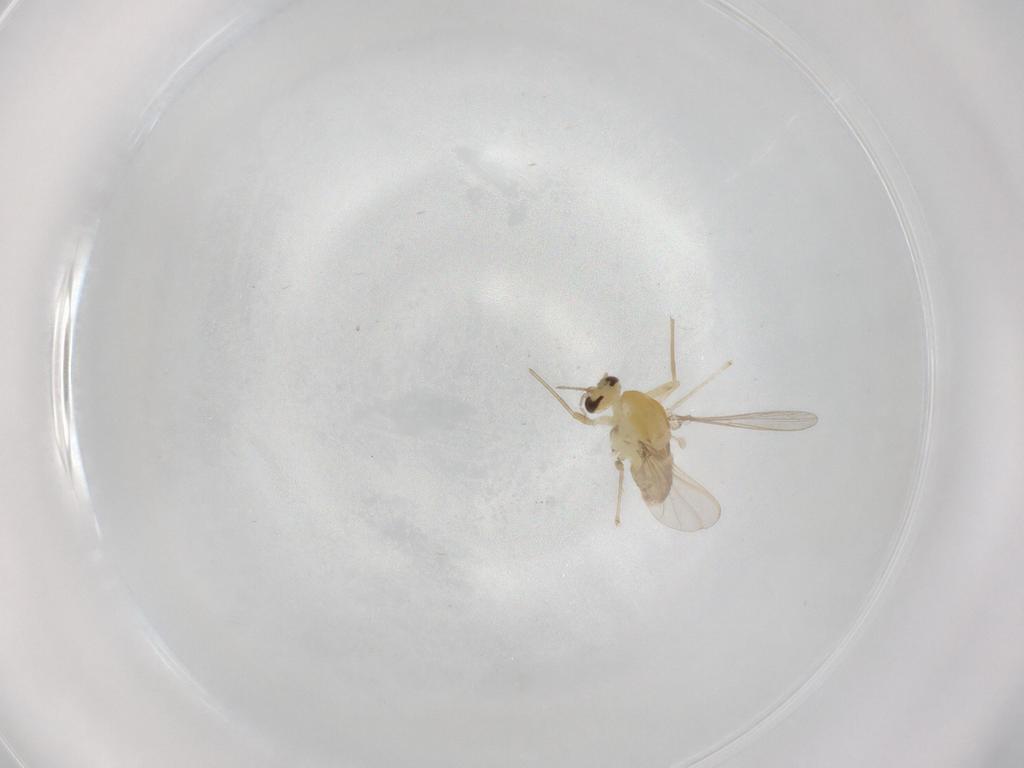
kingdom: Animalia
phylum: Arthropoda
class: Insecta
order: Diptera
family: Chironomidae
